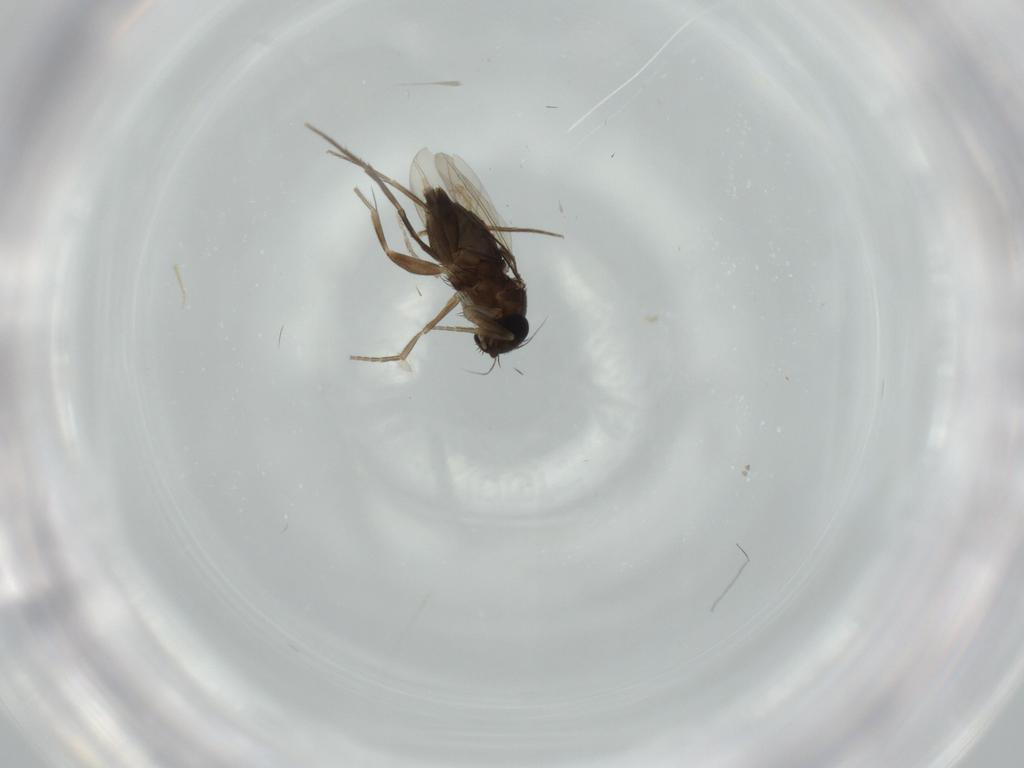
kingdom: Animalia
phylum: Arthropoda
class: Insecta
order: Diptera
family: Phoridae
